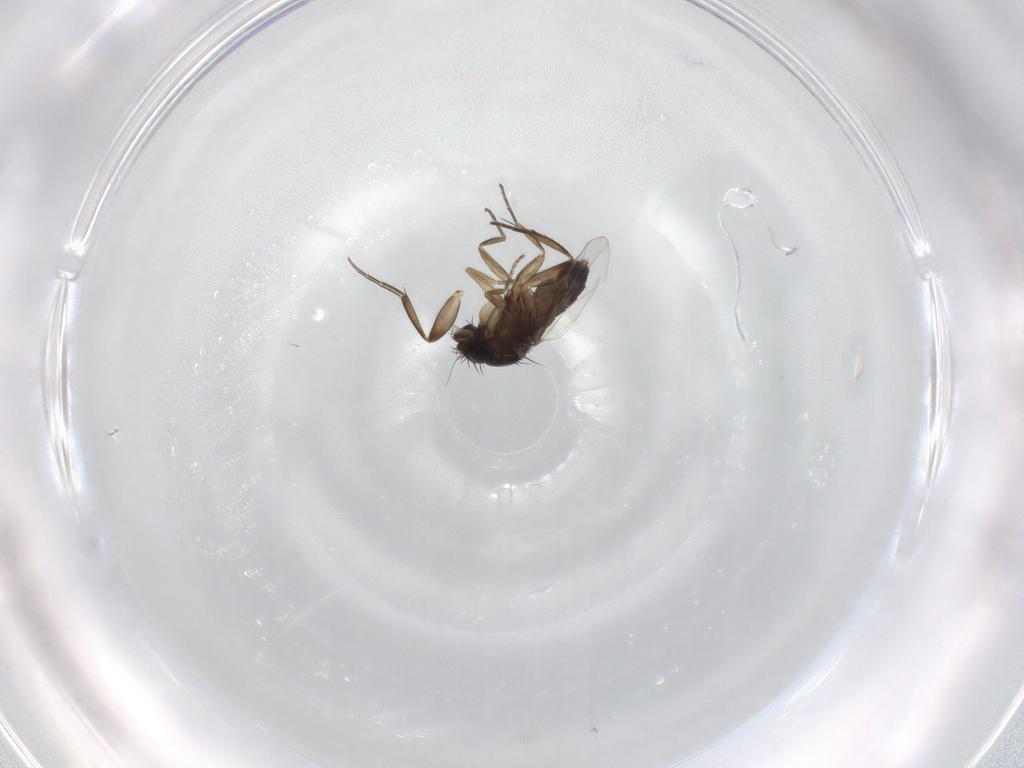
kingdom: Animalia
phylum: Arthropoda
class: Insecta
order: Diptera
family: Phoridae
